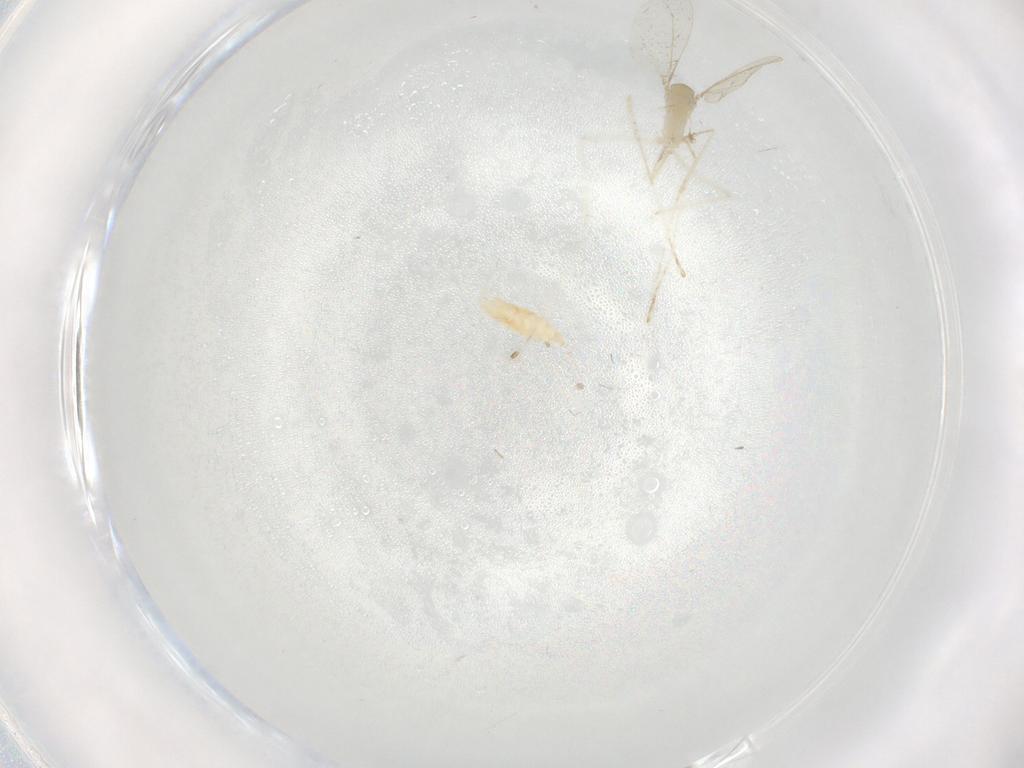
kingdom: Animalia
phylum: Arthropoda
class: Insecta
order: Diptera
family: Cecidomyiidae
